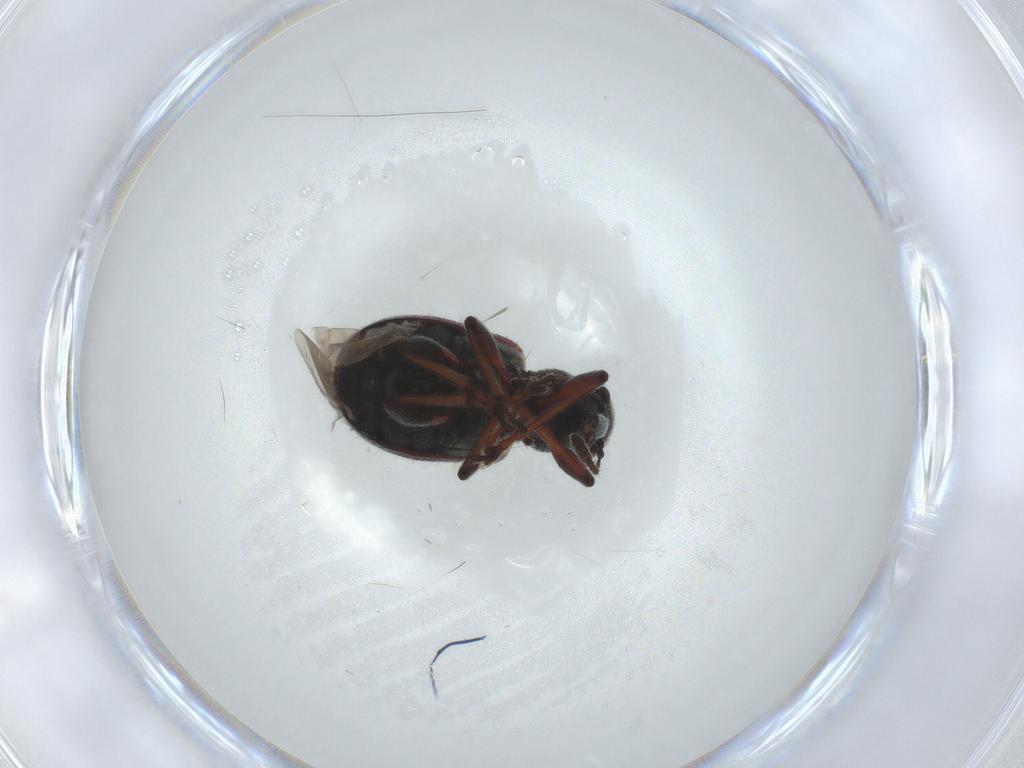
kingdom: Animalia
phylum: Arthropoda
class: Insecta
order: Coleoptera
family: Attelabidae
